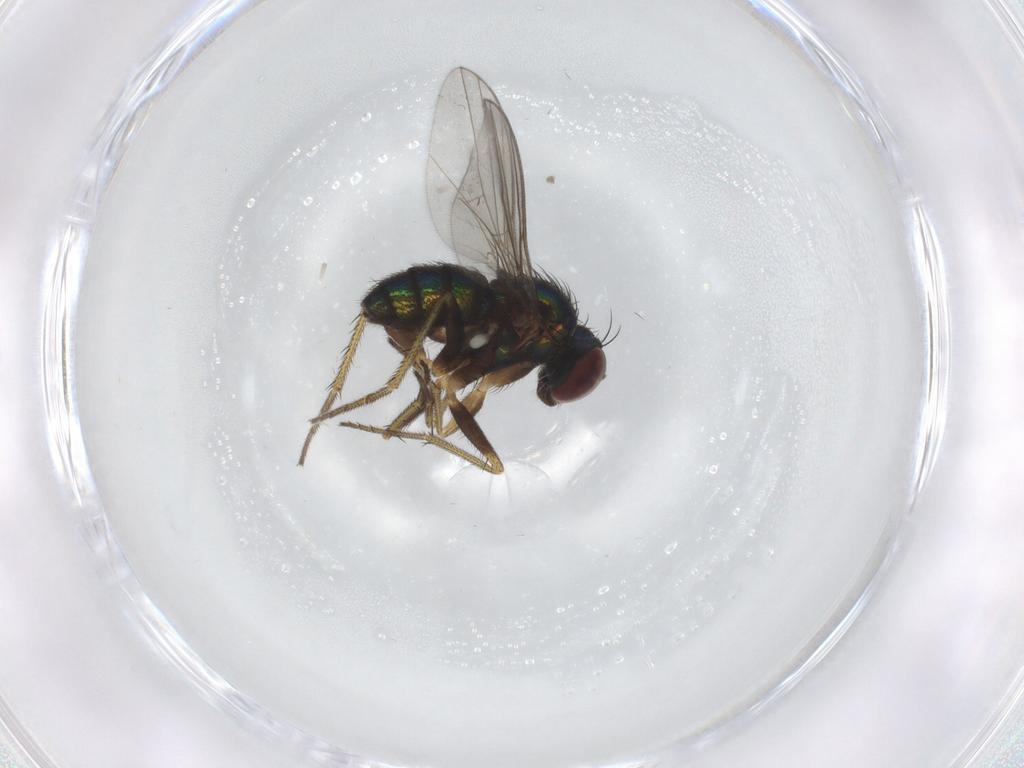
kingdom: Animalia
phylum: Arthropoda
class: Insecta
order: Diptera
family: Dolichopodidae
